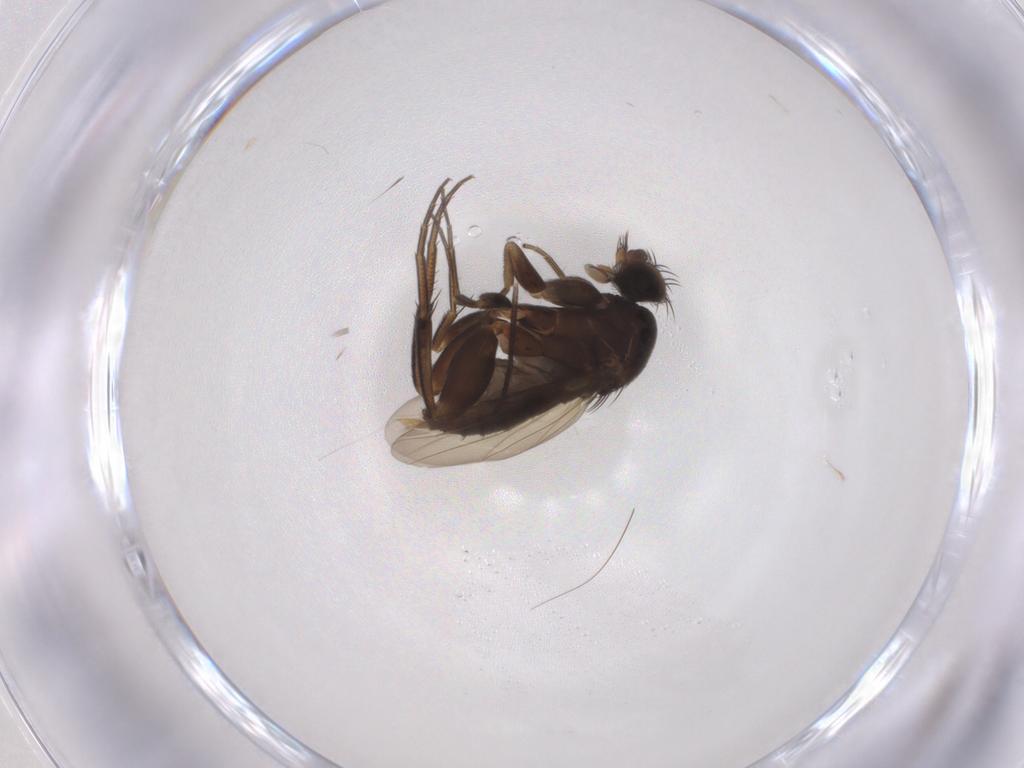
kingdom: Animalia
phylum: Arthropoda
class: Insecta
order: Diptera
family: Phoridae
